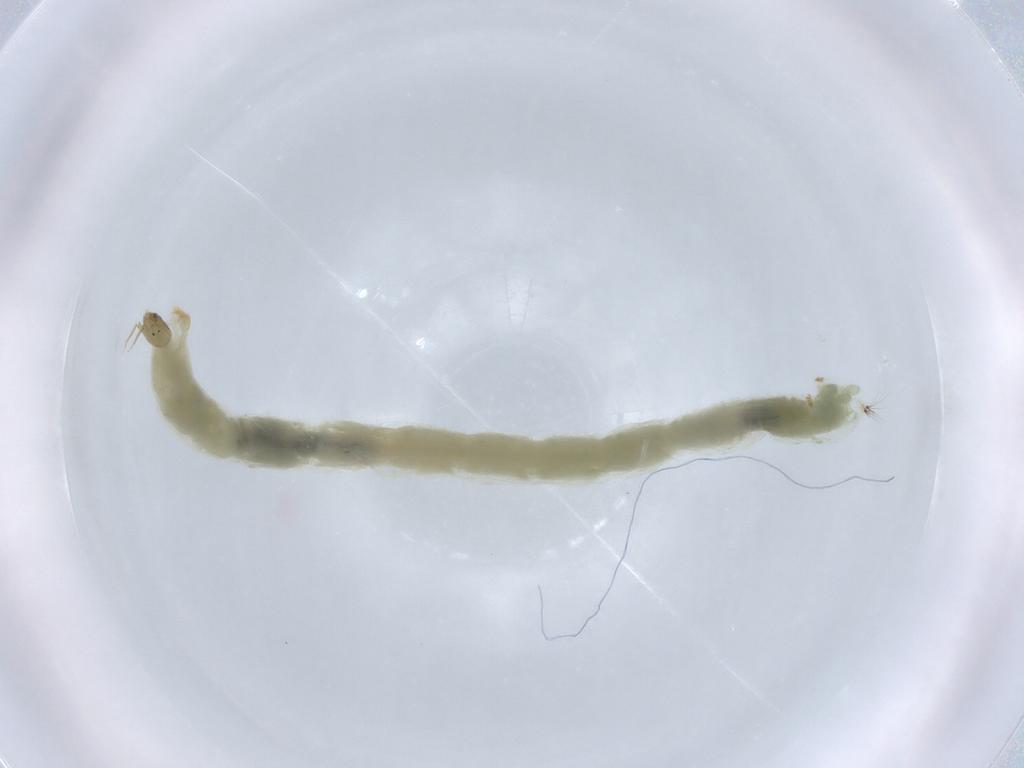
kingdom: Animalia
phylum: Arthropoda
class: Insecta
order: Diptera
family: Chironomidae
